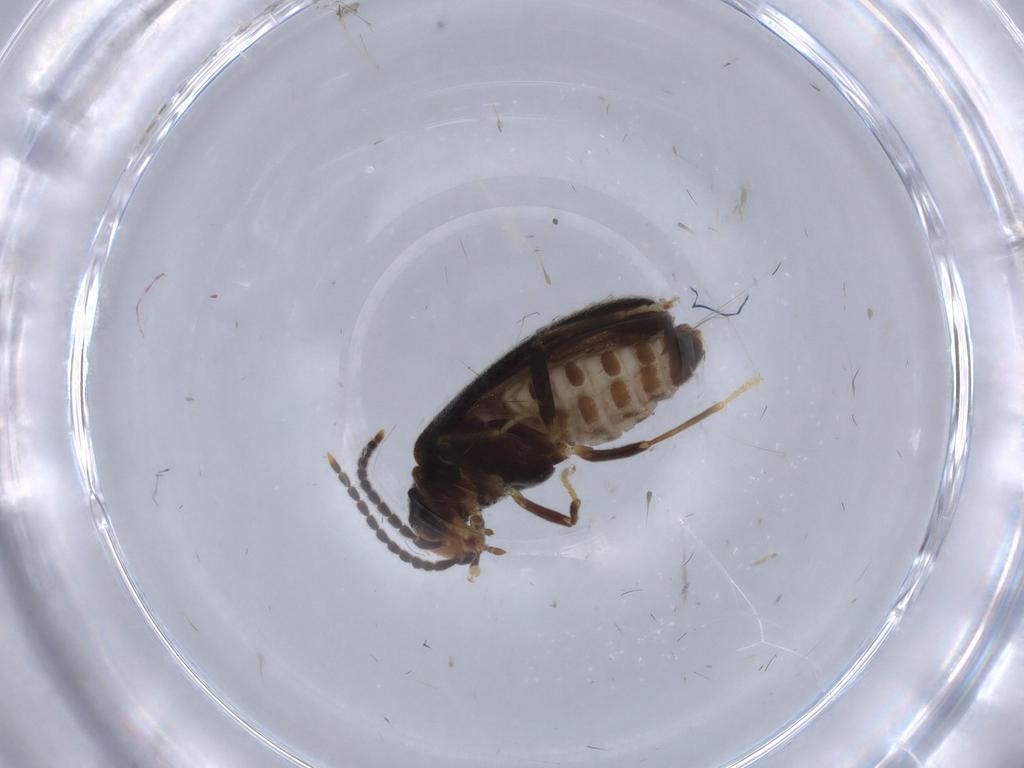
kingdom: Animalia
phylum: Arthropoda
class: Insecta
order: Coleoptera
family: Cantharidae
